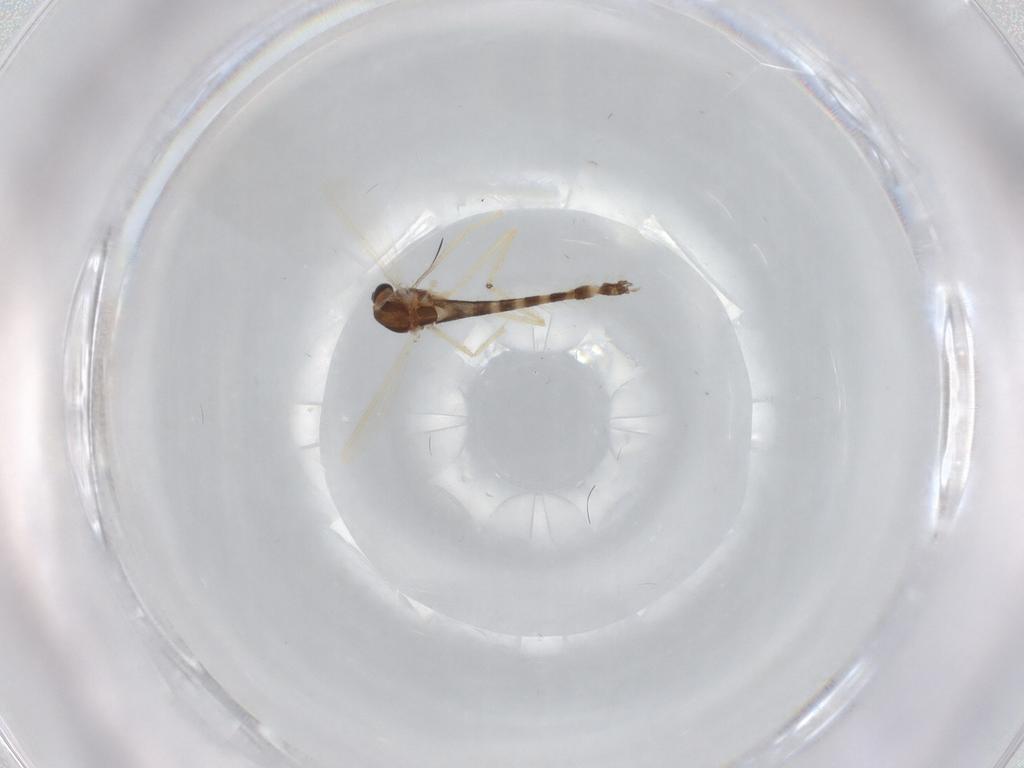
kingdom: Animalia
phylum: Arthropoda
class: Insecta
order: Diptera
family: Chironomidae
